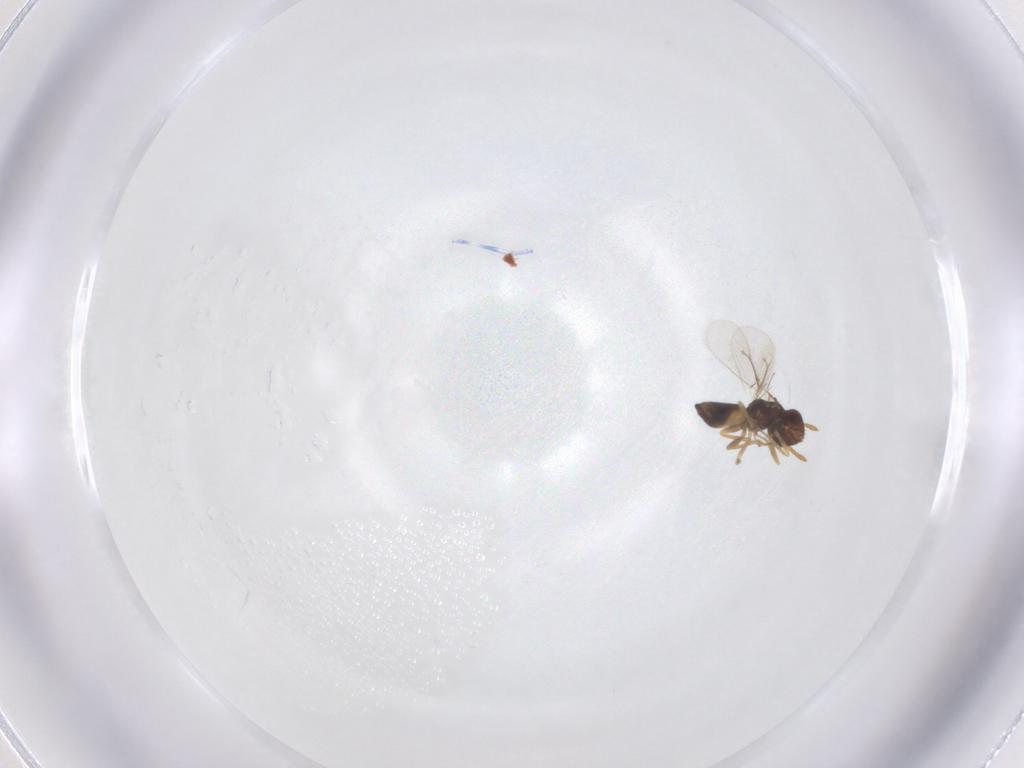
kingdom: Animalia
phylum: Arthropoda
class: Insecta
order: Hymenoptera
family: Eulophidae
